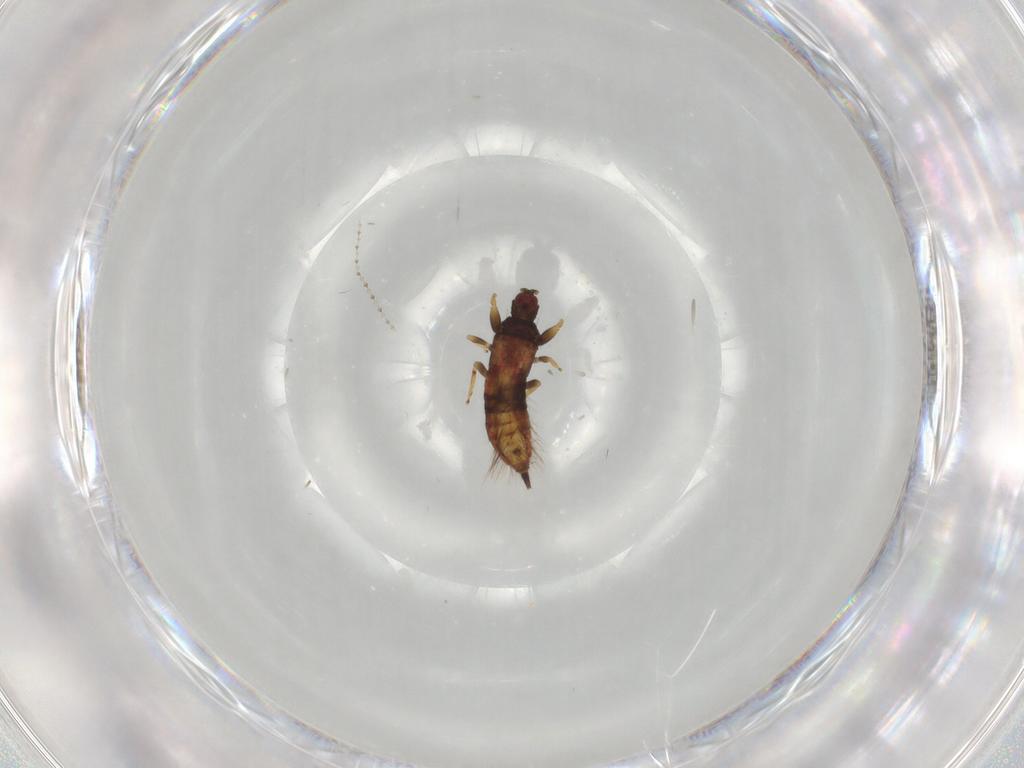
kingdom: Animalia
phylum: Arthropoda
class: Insecta
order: Thysanoptera
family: Phlaeothripidae
